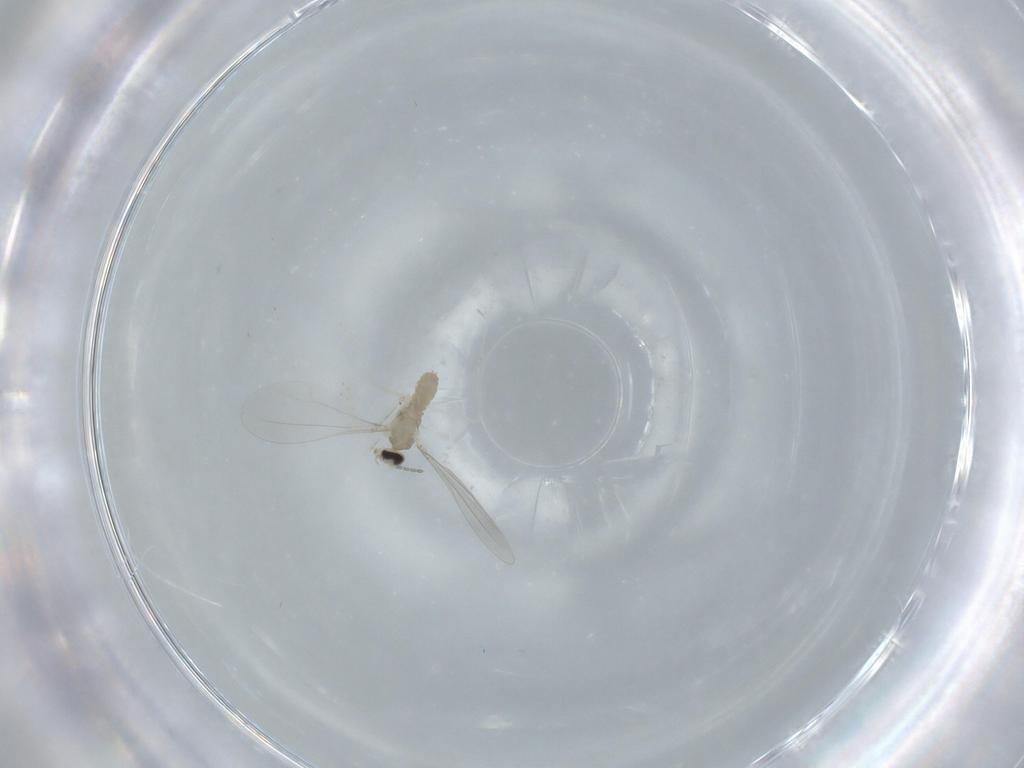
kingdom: Animalia
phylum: Arthropoda
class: Insecta
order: Diptera
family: Cecidomyiidae
